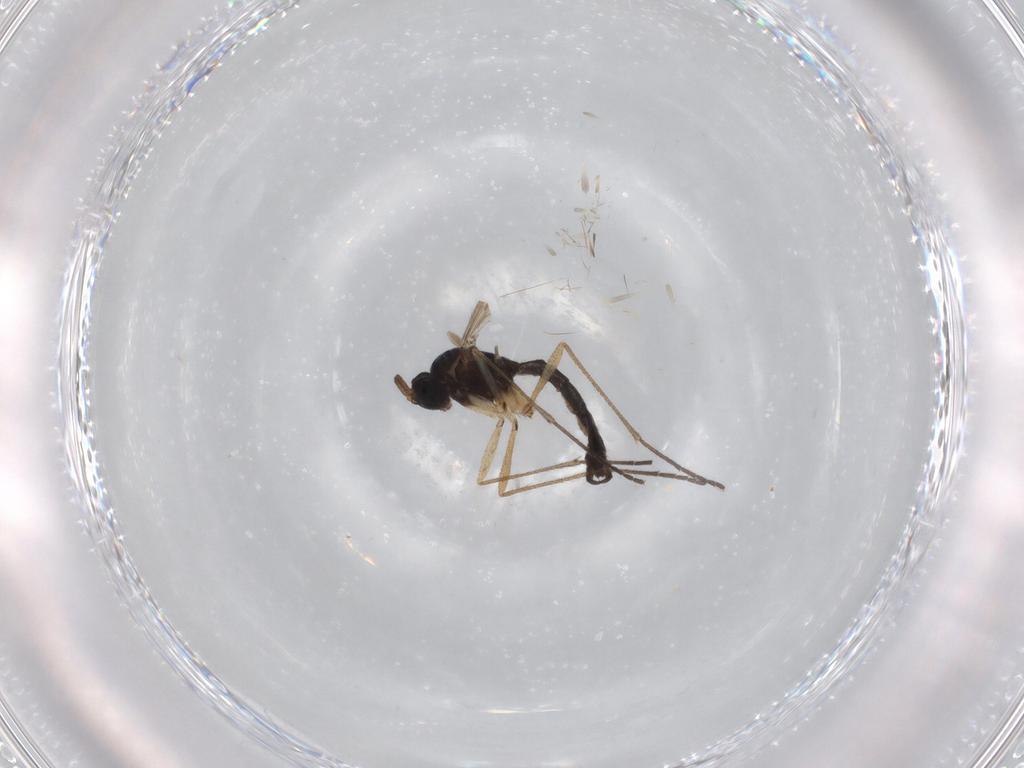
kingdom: Animalia
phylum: Arthropoda
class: Insecta
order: Diptera
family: Sciaridae
